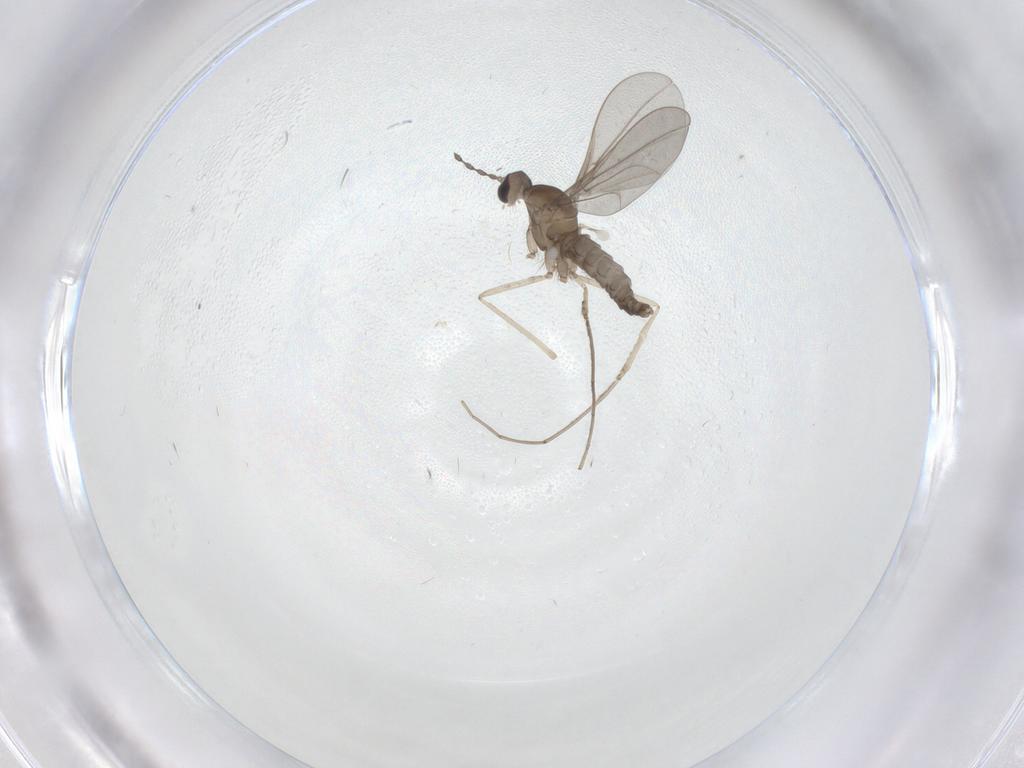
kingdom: Animalia
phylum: Arthropoda
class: Insecta
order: Diptera
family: Cecidomyiidae
